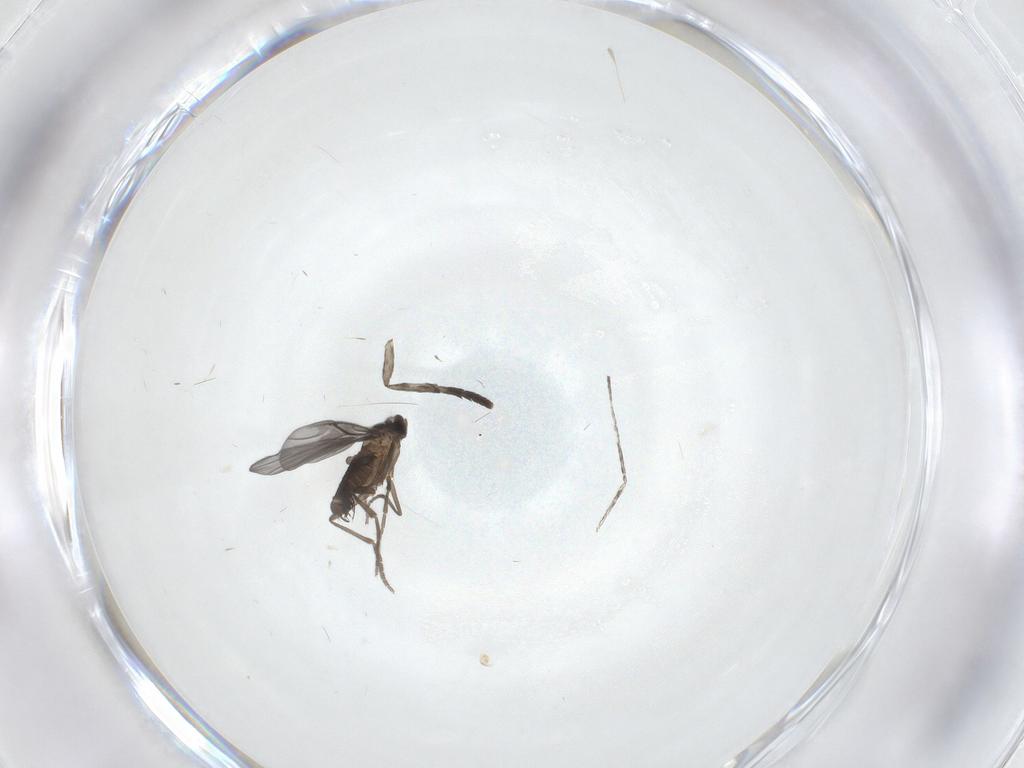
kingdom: Animalia
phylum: Arthropoda
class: Insecta
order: Diptera
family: Phoridae
